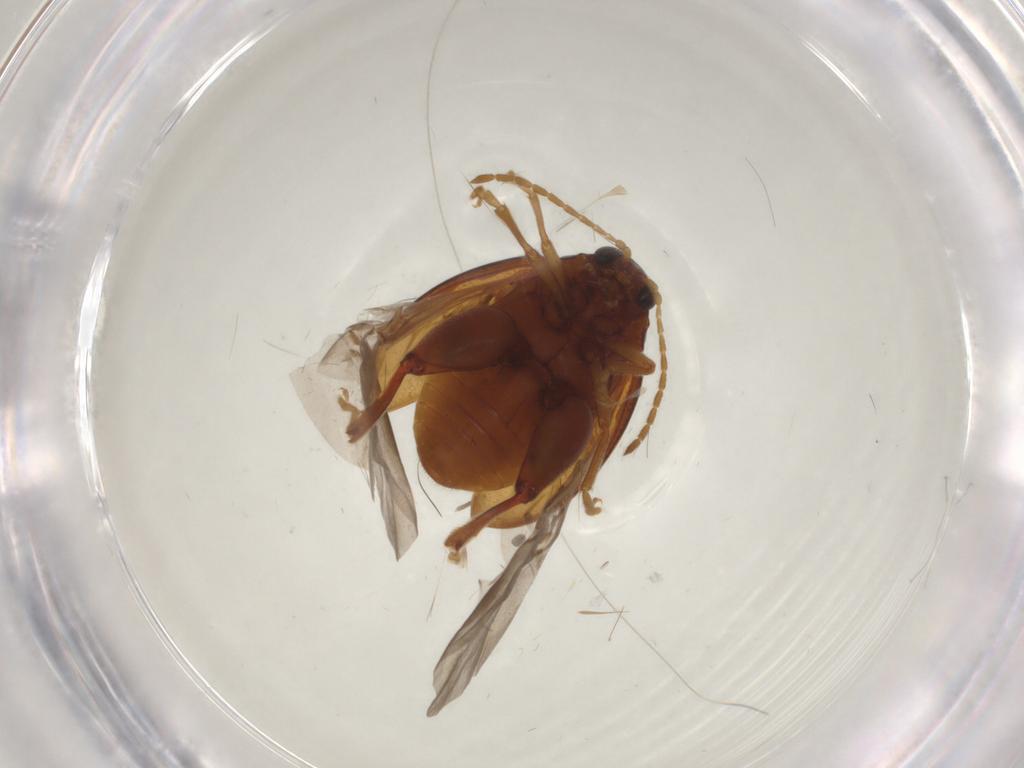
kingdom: Animalia
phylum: Arthropoda
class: Insecta
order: Coleoptera
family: Chrysomelidae
